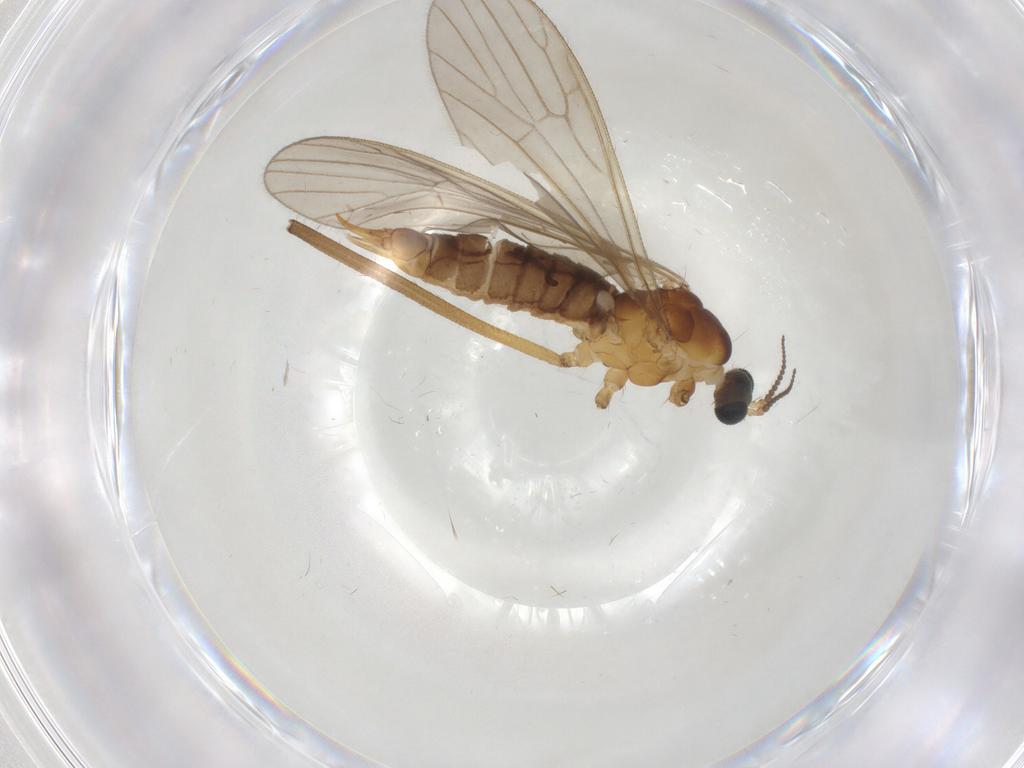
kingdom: Animalia
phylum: Arthropoda
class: Insecta
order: Diptera
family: Limoniidae
